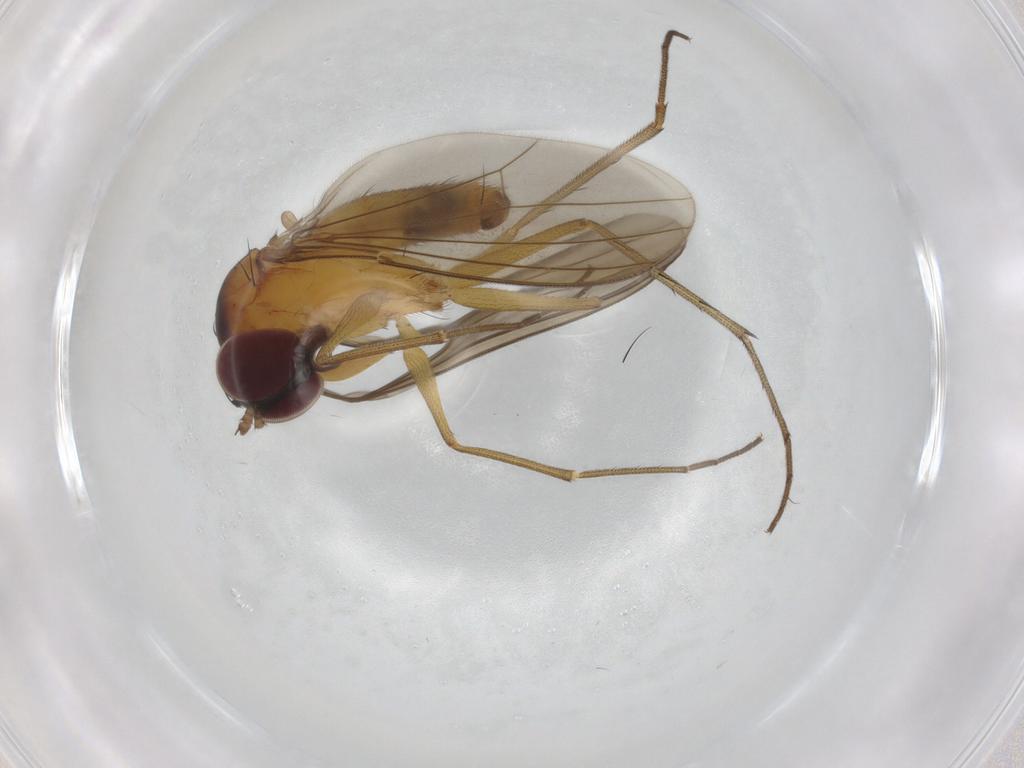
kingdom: Animalia
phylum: Arthropoda
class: Insecta
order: Diptera
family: Dolichopodidae
